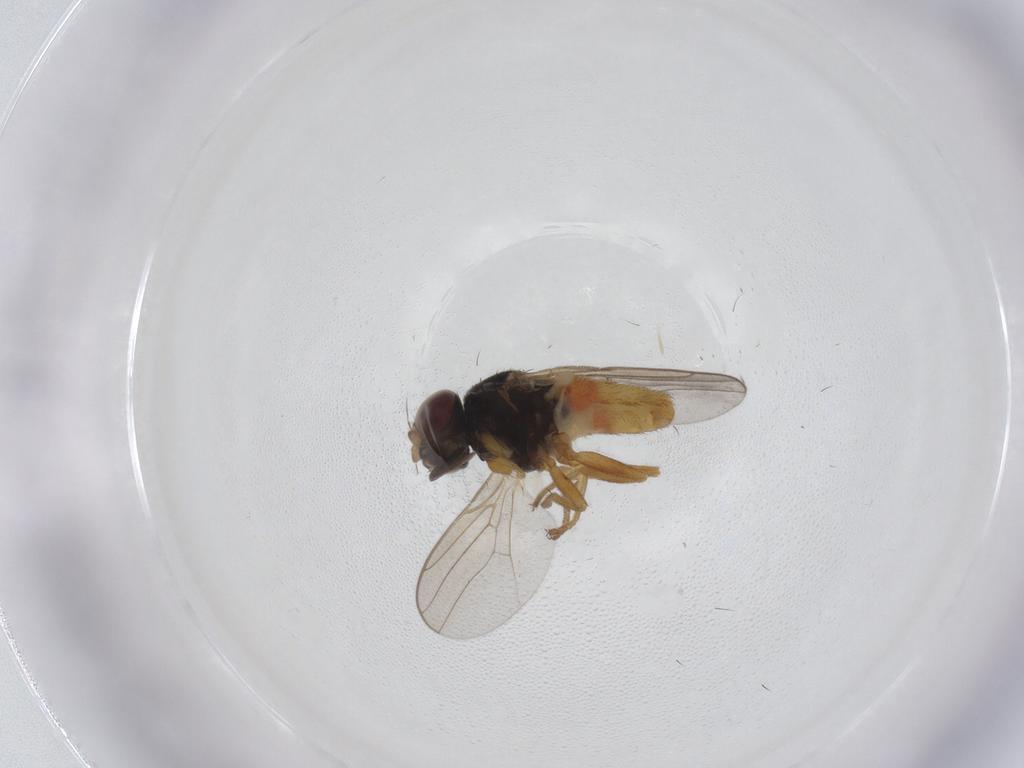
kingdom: Animalia
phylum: Arthropoda
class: Insecta
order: Diptera
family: Chloropidae
